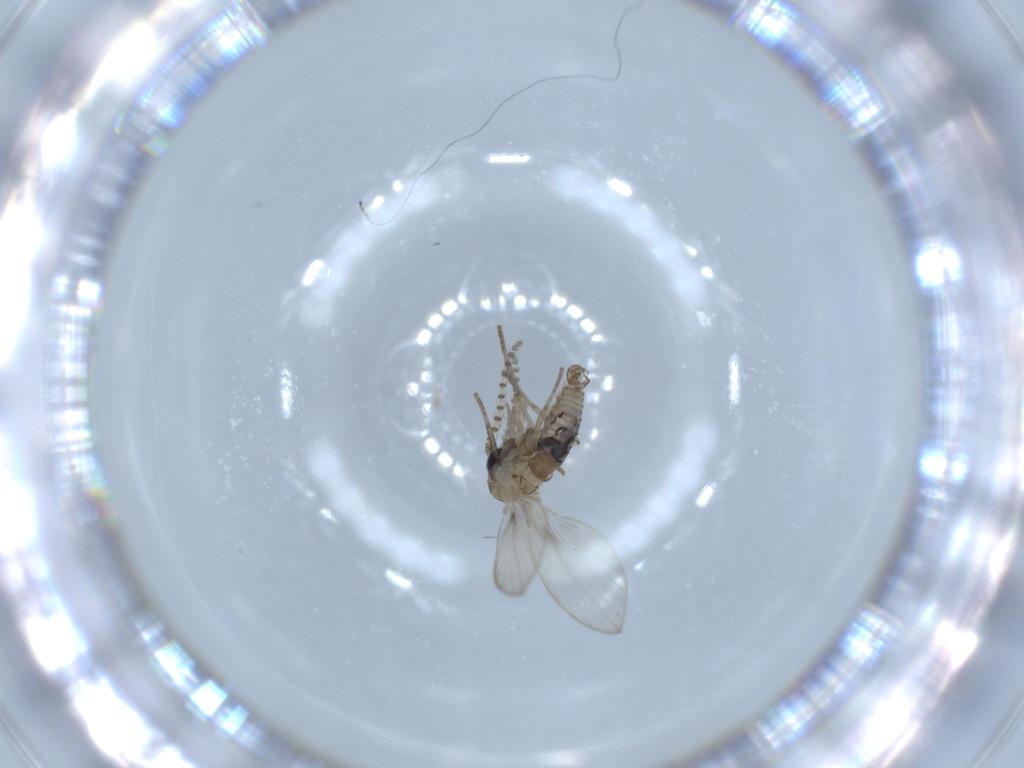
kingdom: Animalia
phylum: Arthropoda
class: Insecta
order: Diptera
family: Psychodidae
